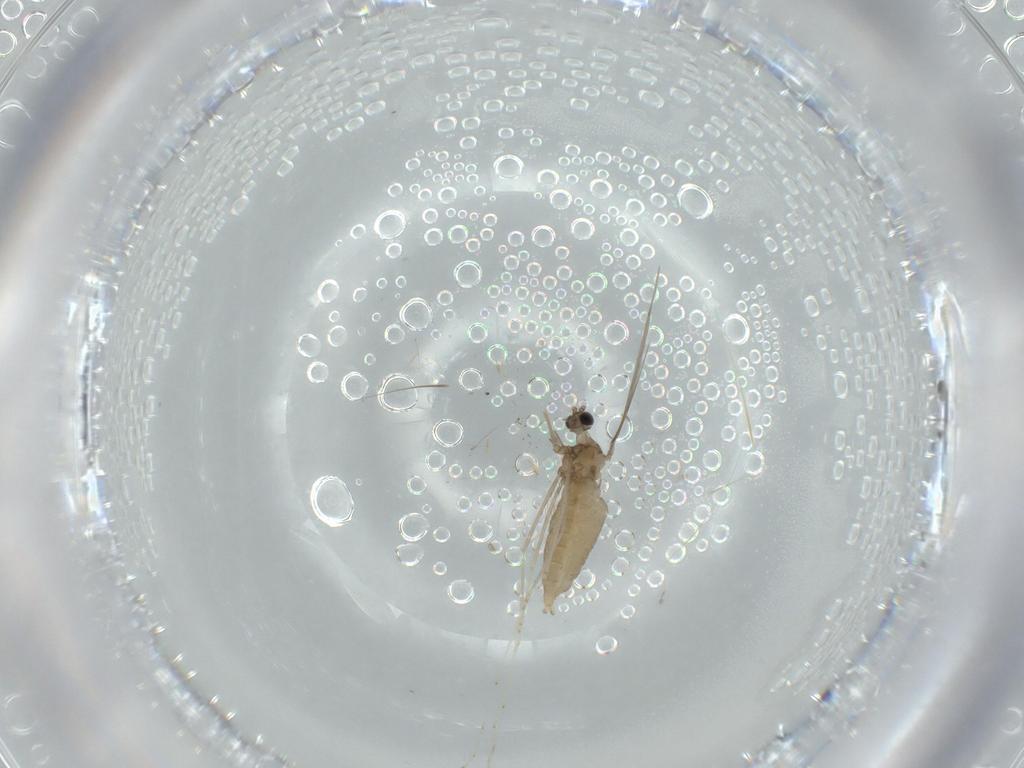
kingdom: Animalia
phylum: Arthropoda
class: Insecta
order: Diptera
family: Cecidomyiidae
